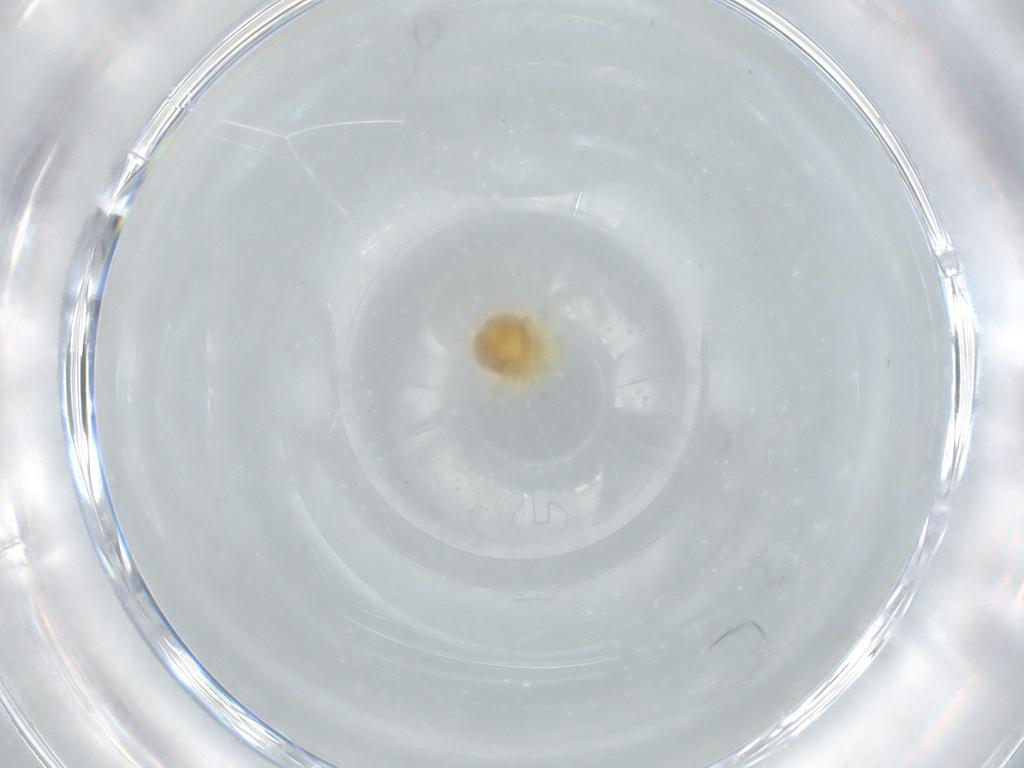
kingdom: Animalia
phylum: Arthropoda
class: Arachnida
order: Trombidiformes
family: Anystidae
